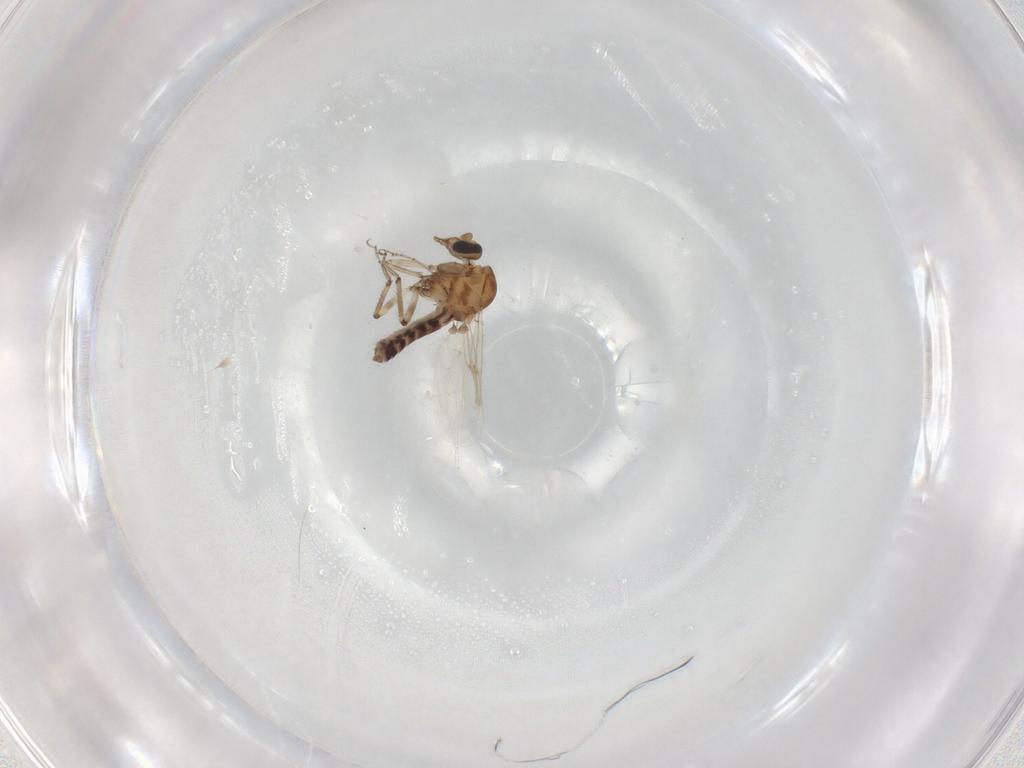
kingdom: Animalia
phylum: Arthropoda
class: Insecta
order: Diptera
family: Ceratopogonidae
